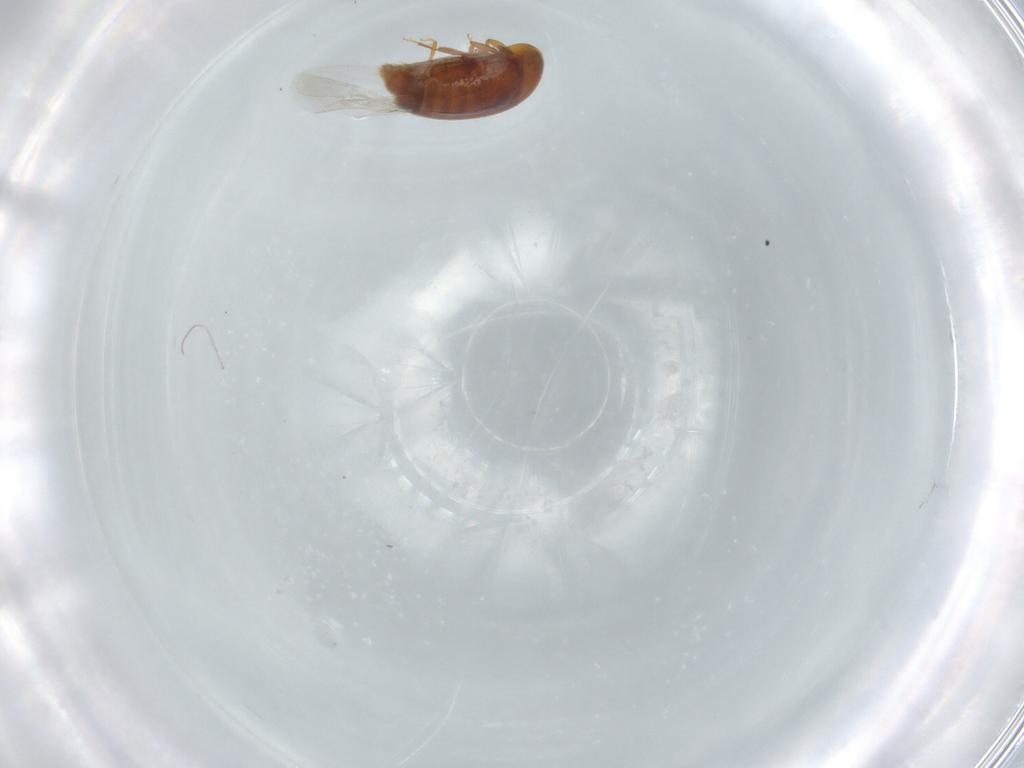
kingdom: Animalia
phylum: Arthropoda
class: Insecta
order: Coleoptera
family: Corylophidae
